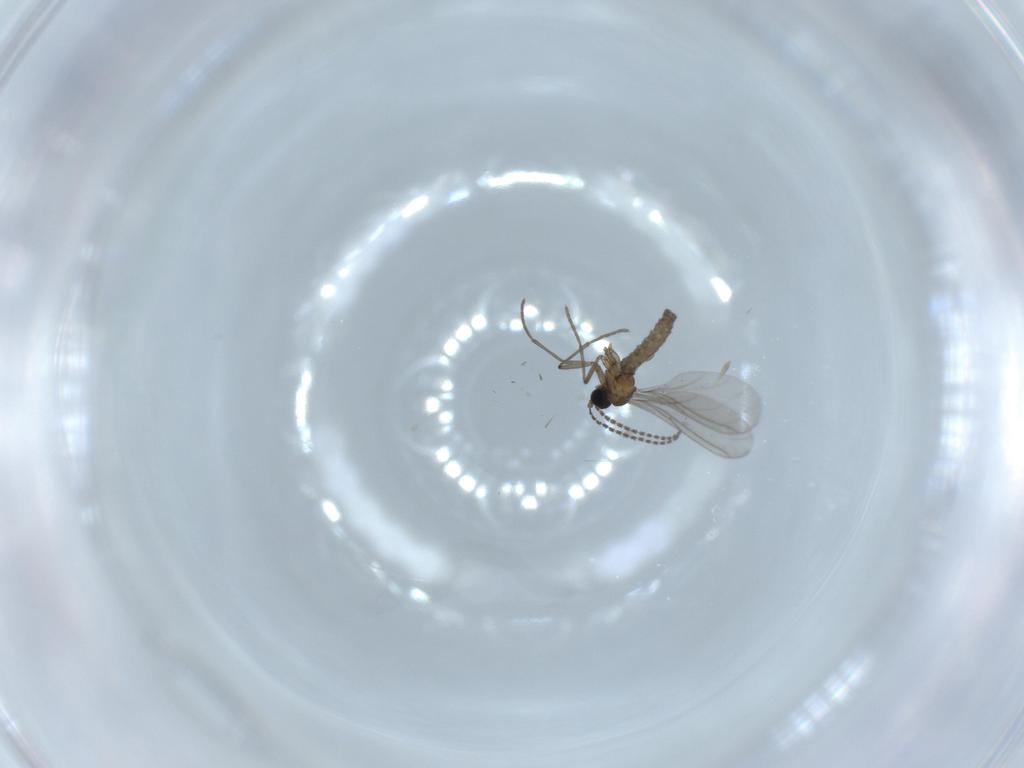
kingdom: Animalia
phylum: Arthropoda
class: Insecta
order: Diptera
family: Sciaridae
